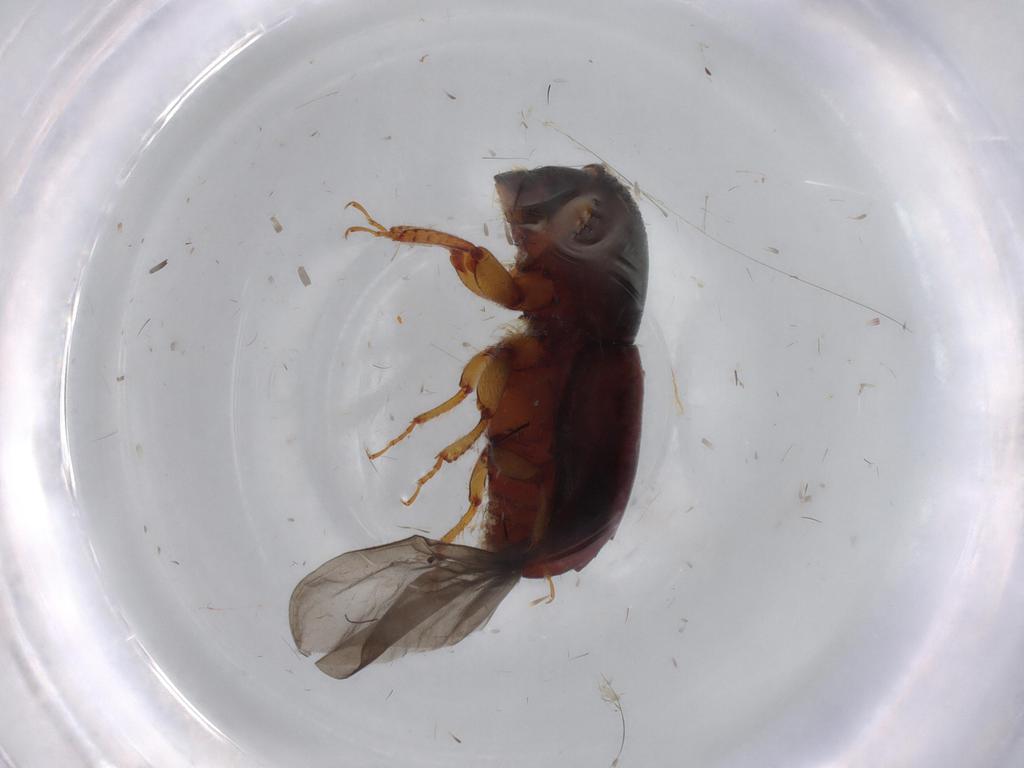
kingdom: Animalia
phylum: Arthropoda
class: Insecta
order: Coleoptera
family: Curculionidae
